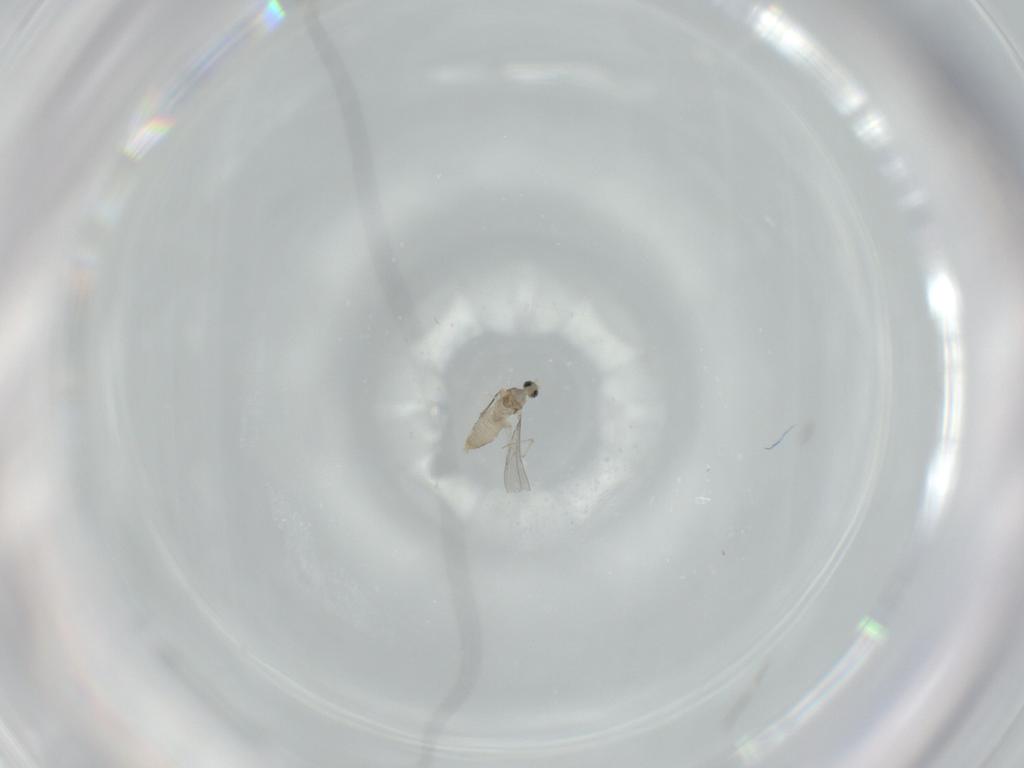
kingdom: Animalia
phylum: Arthropoda
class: Insecta
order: Diptera
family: Cecidomyiidae
